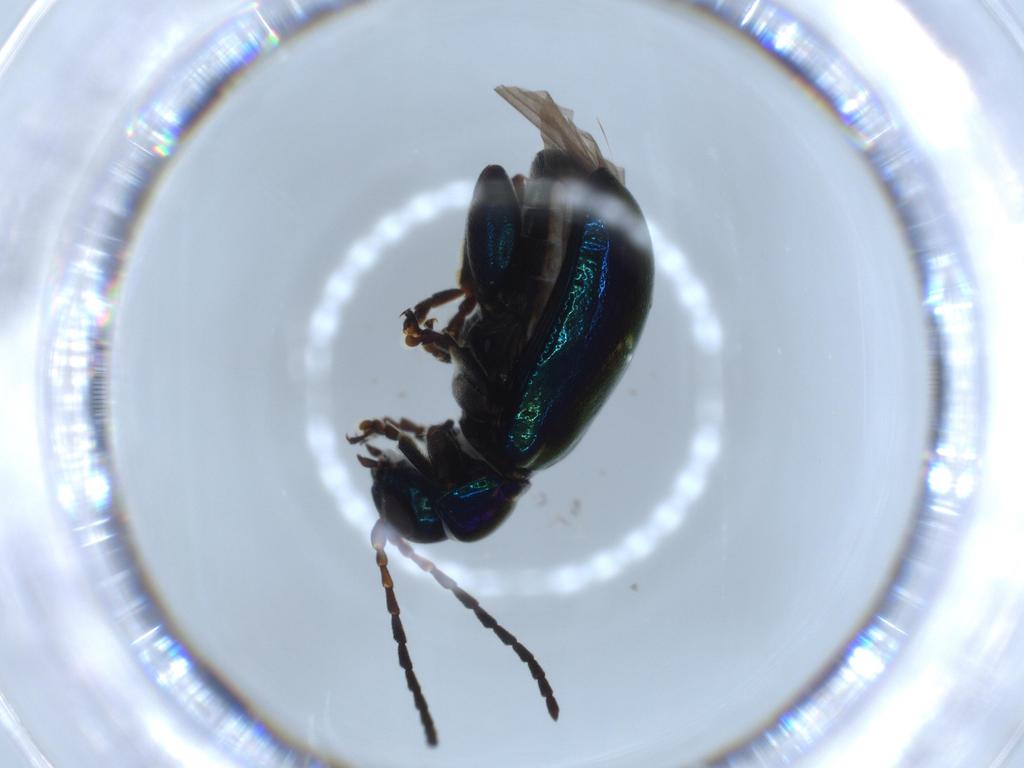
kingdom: Animalia
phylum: Arthropoda
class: Insecta
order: Coleoptera
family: Chrysomelidae
